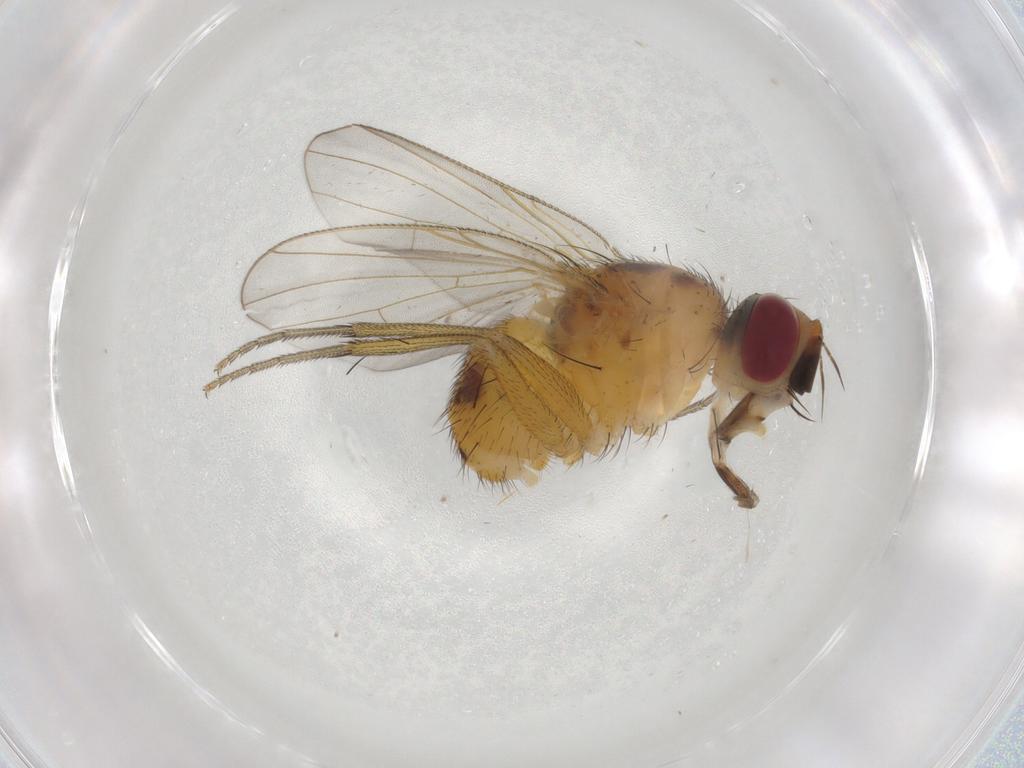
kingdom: Animalia
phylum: Arthropoda
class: Insecta
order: Diptera
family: Muscidae
